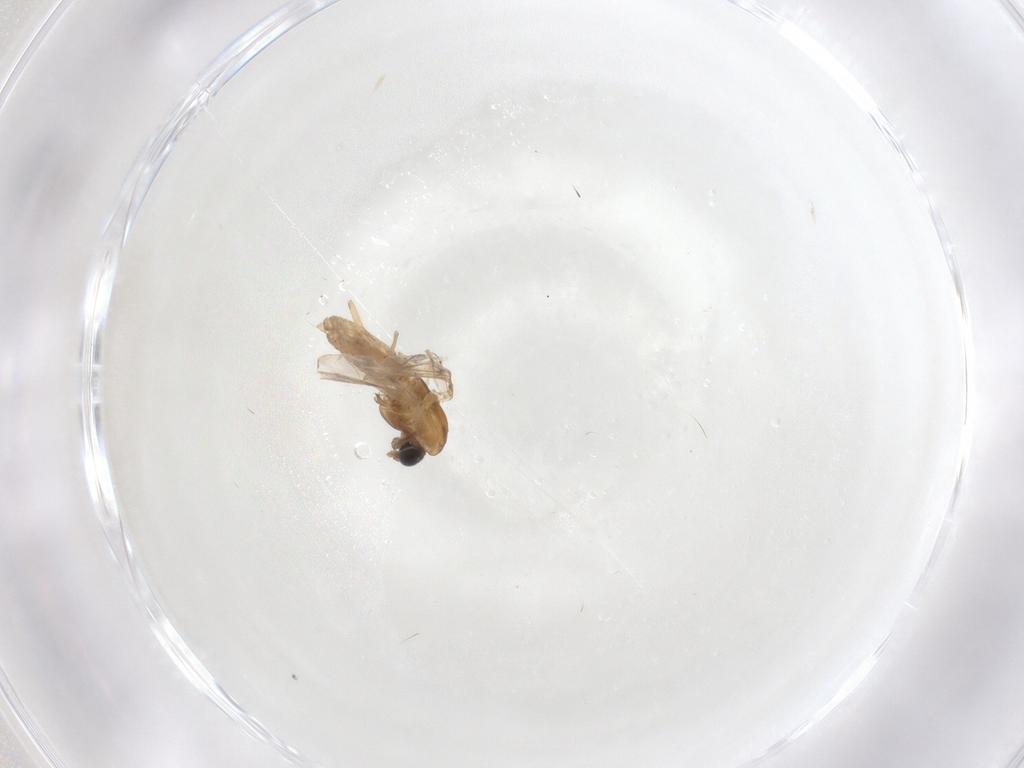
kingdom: Animalia
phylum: Arthropoda
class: Insecta
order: Diptera
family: Chironomidae
